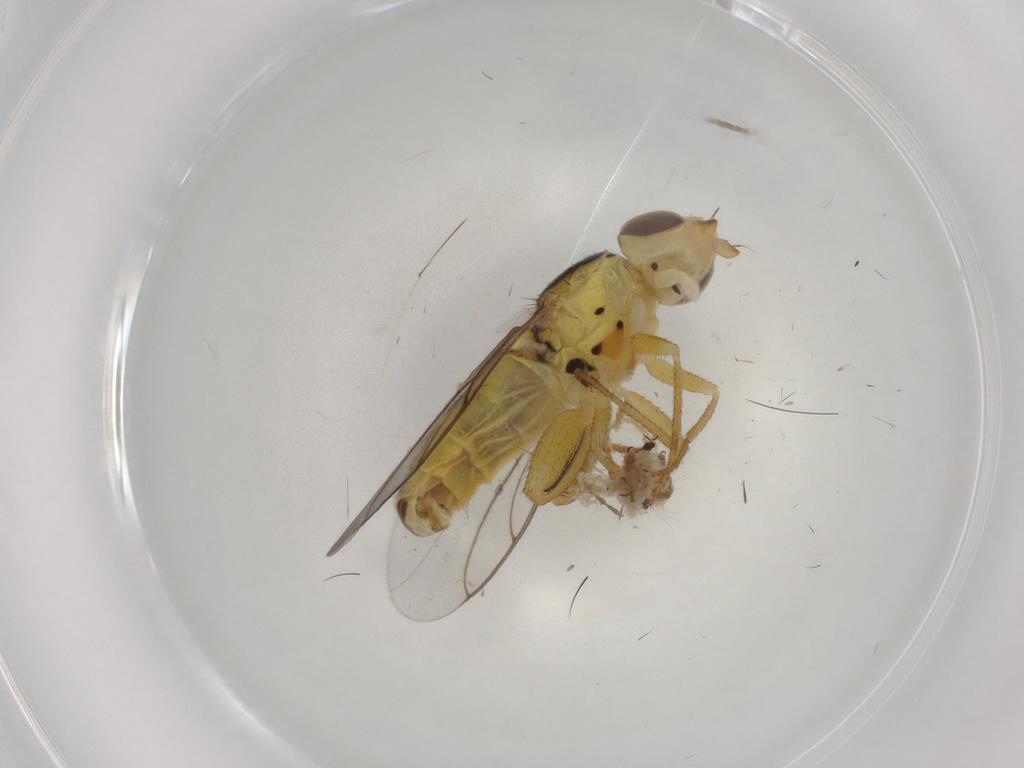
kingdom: Animalia
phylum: Arthropoda
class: Insecta
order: Diptera
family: Chloropidae
